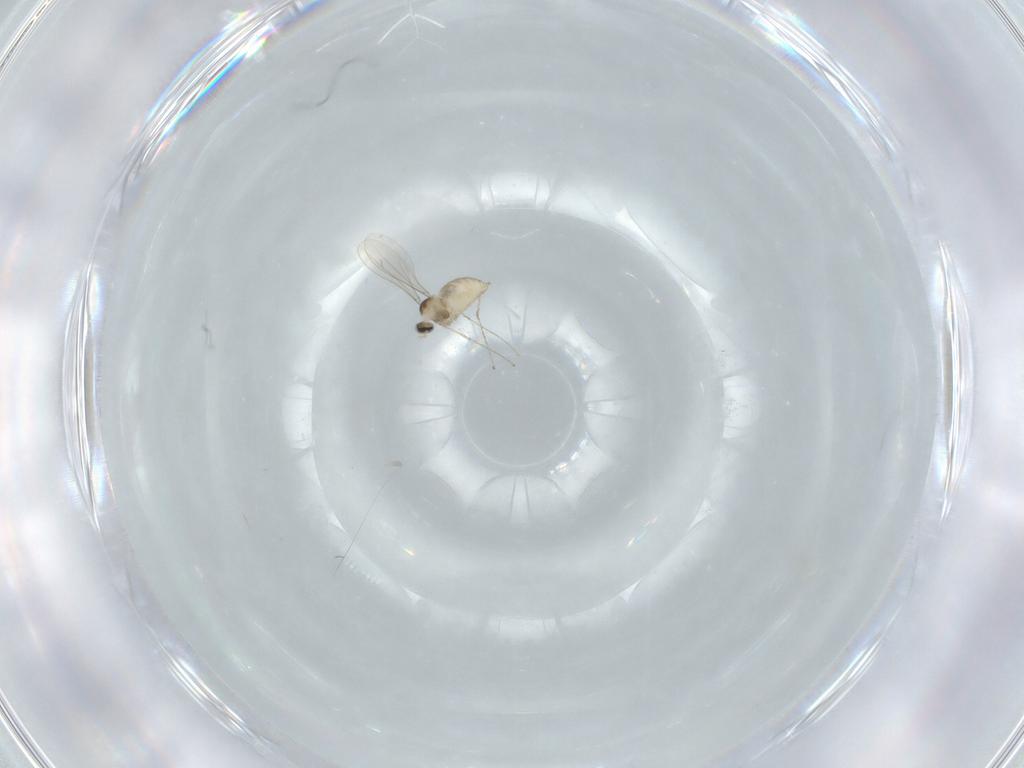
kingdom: Animalia
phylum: Arthropoda
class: Insecta
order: Diptera
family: Cecidomyiidae
